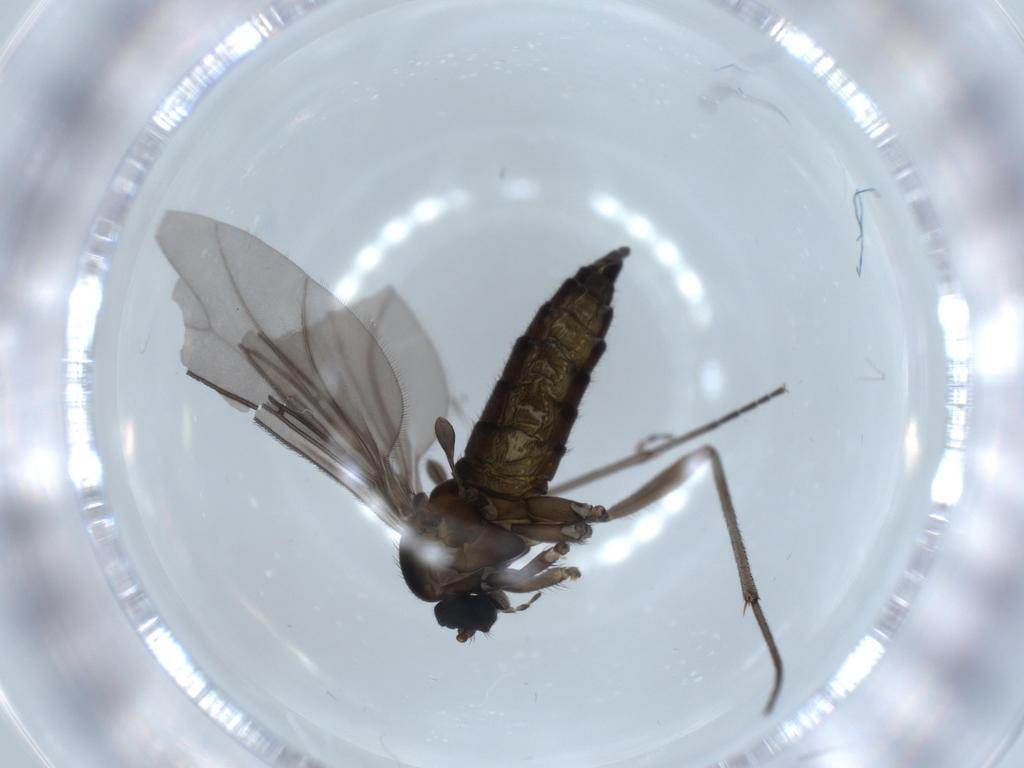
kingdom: Animalia
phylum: Arthropoda
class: Insecta
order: Diptera
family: Sciaridae
